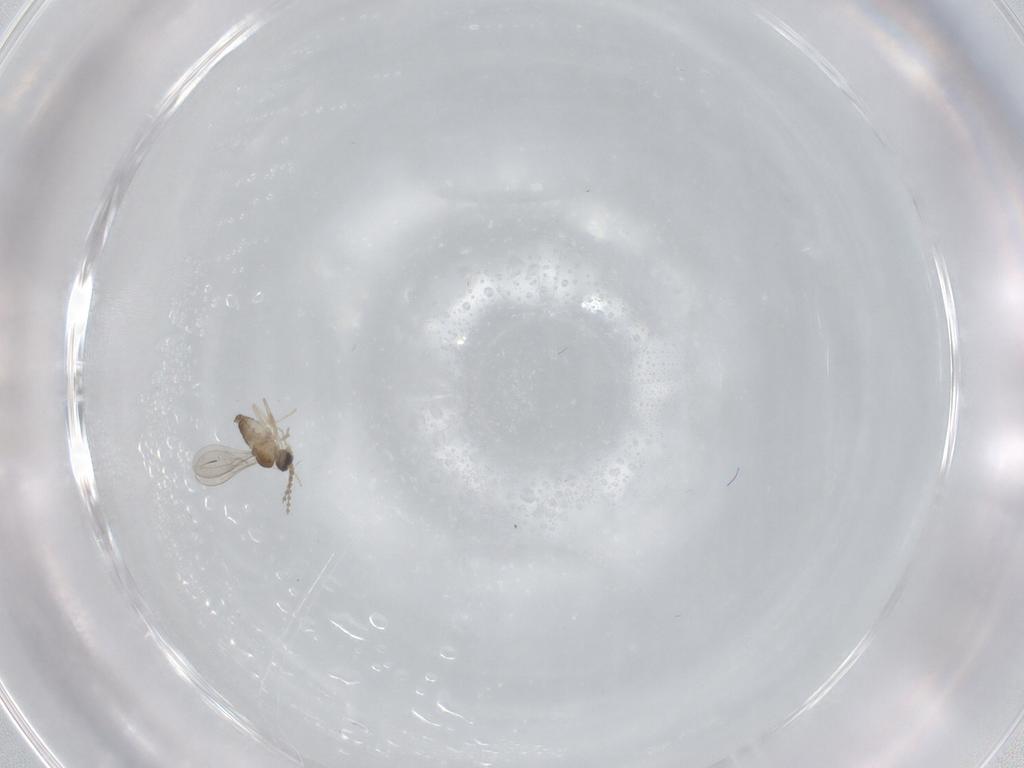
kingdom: Animalia
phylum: Arthropoda
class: Insecta
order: Diptera
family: Cecidomyiidae
